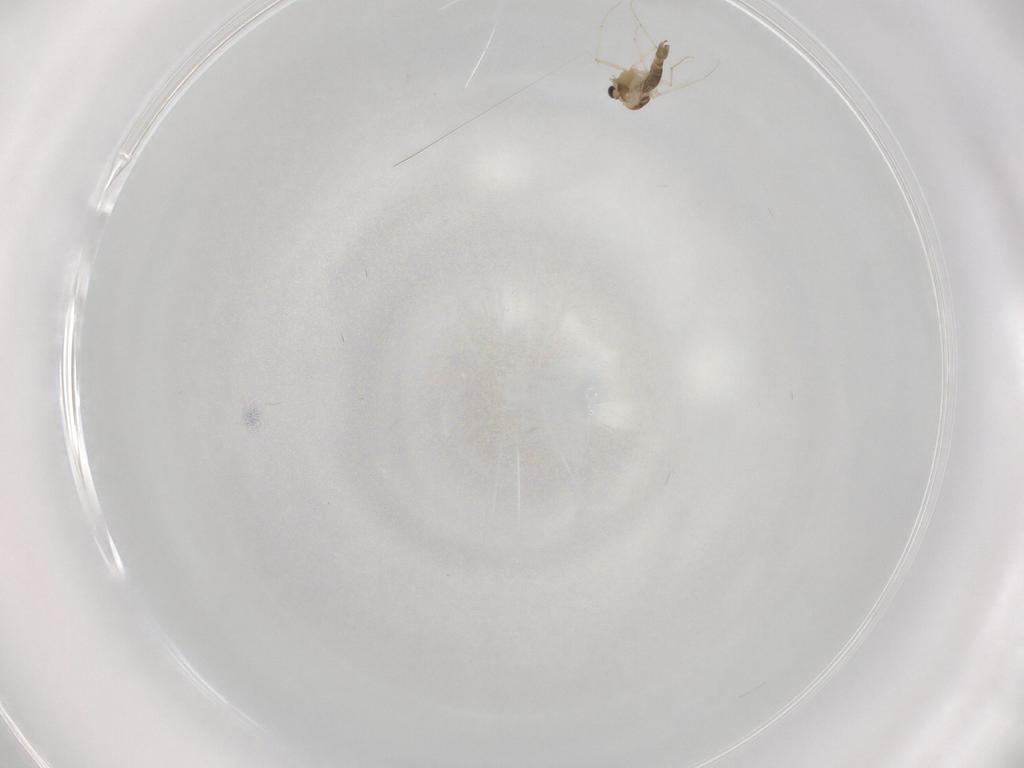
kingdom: Animalia
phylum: Arthropoda
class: Insecta
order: Diptera
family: Chironomidae
